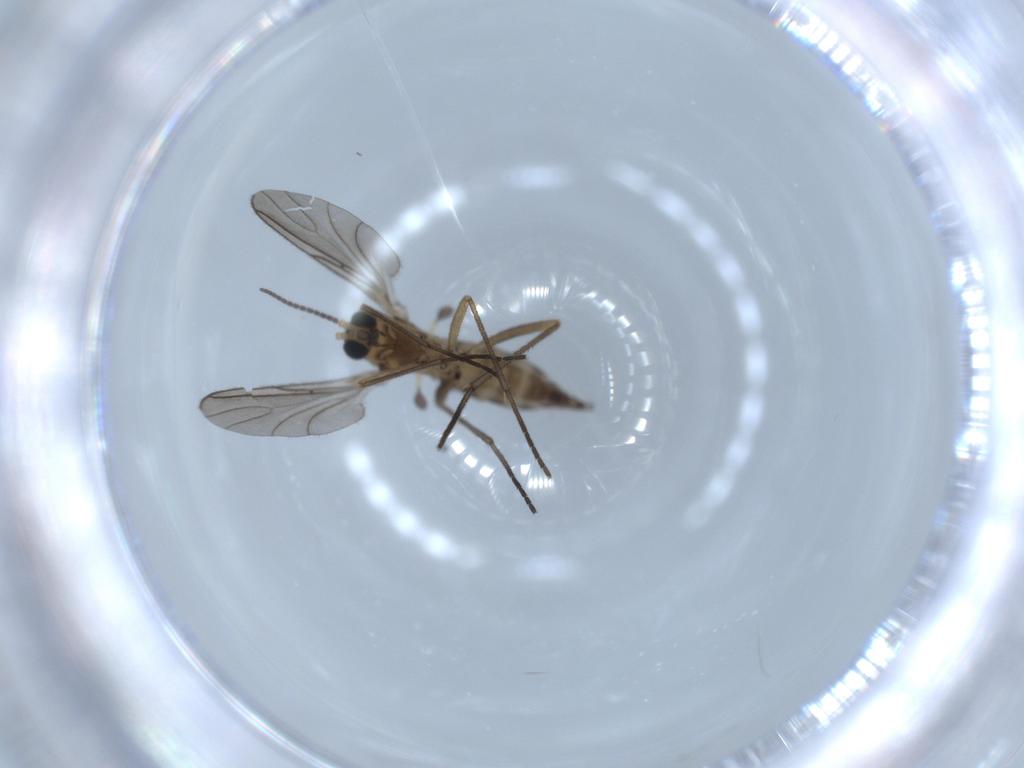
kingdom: Animalia
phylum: Arthropoda
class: Insecta
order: Diptera
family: Sciaridae
